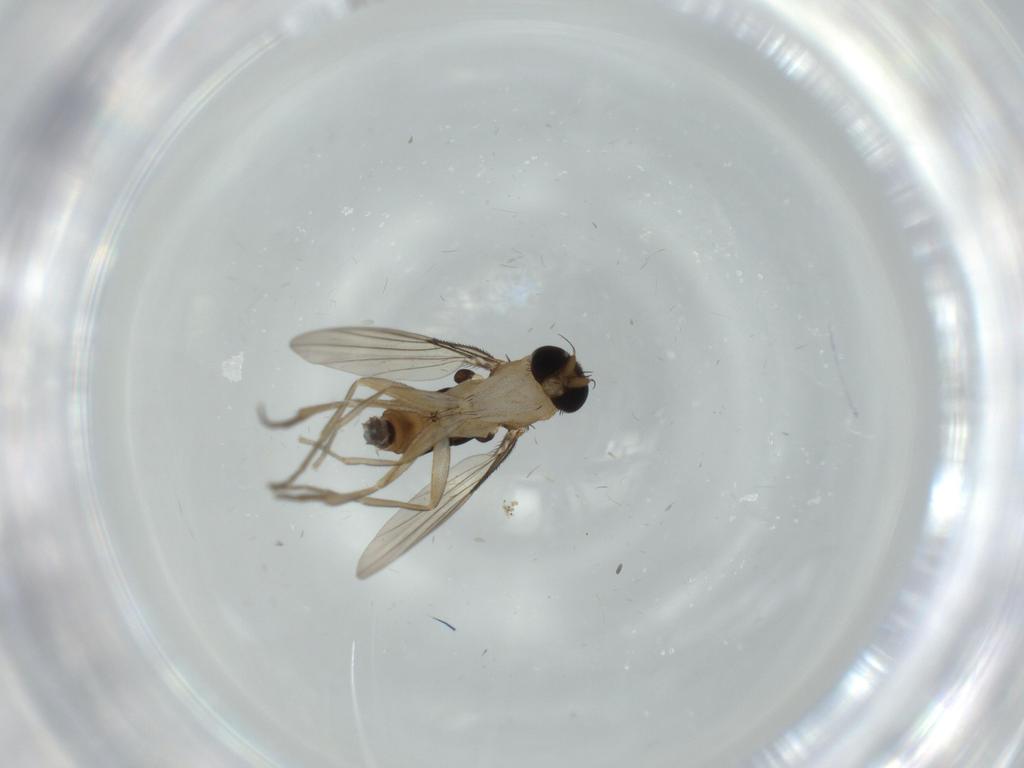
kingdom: Animalia
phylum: Arthropoda
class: Insecta
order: Diptera
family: Phoridae
